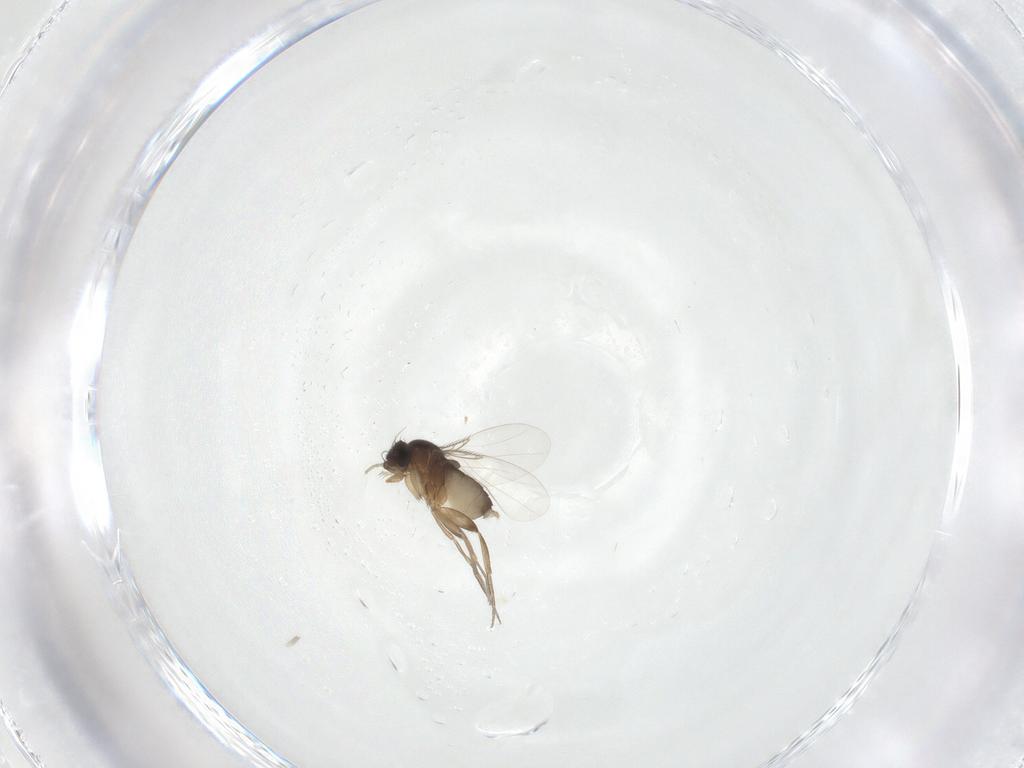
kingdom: Animalia
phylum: Arthropoda
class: Insecta
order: Diptera
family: Phoridae
